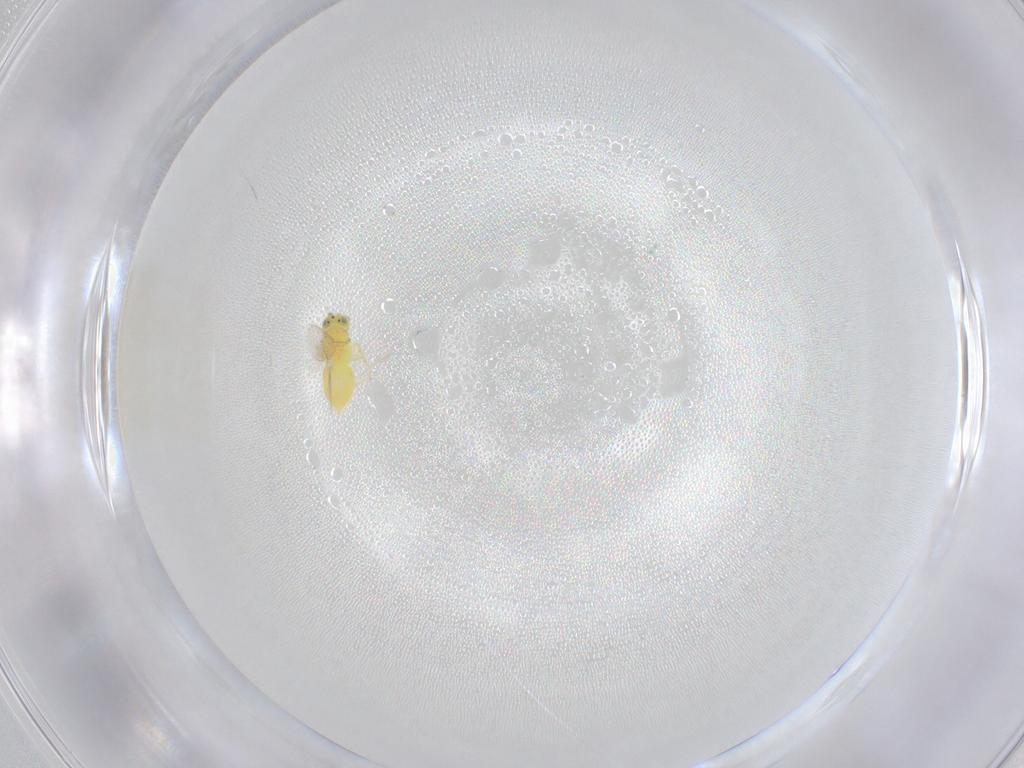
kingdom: Animalia
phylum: Arthropoda
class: Insecta
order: Hymenoptera
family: Aphelinidae
